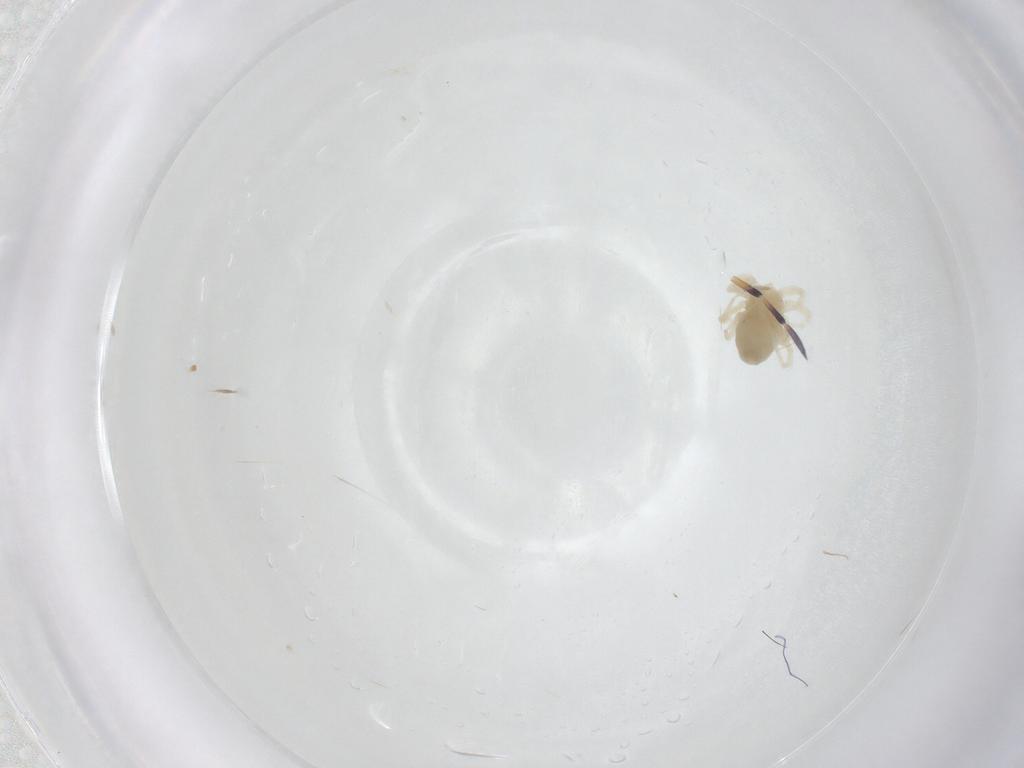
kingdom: Animalia
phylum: Arthropoda
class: Arachnida
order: Trombidiformes
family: Anystidae
